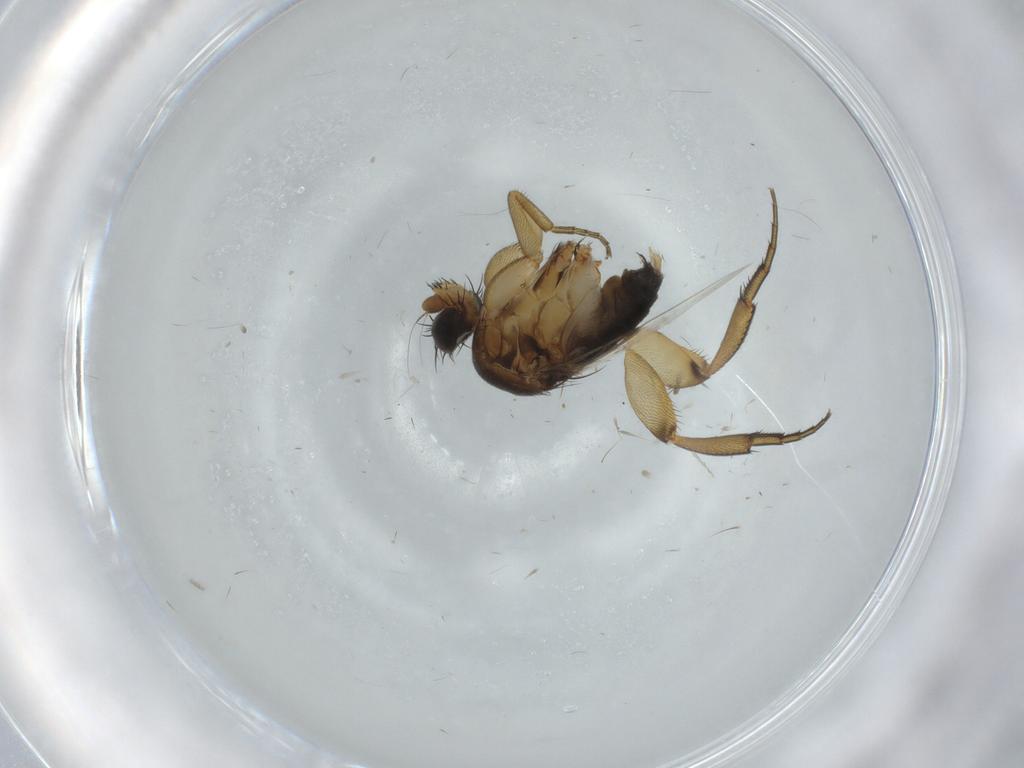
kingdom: Animalia
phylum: Arthropoda
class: Insecta
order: Diptera
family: Phoridae
